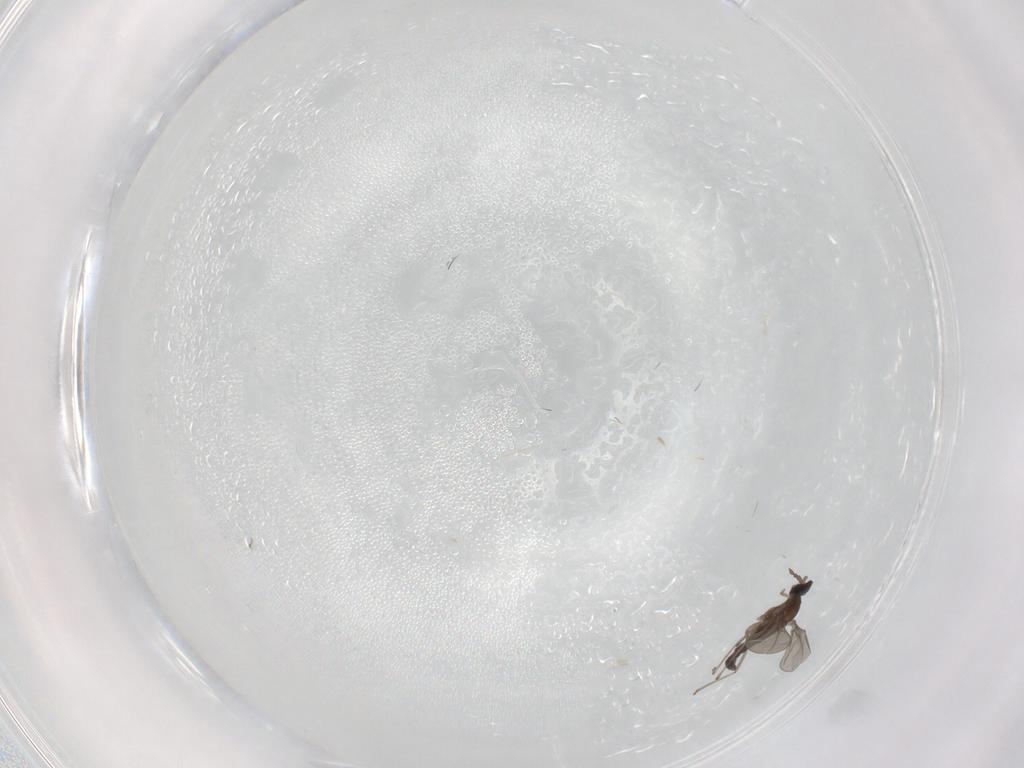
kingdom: Animalia
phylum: Arthropoda
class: Insecta
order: Diptera
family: Cecidomyiidae
